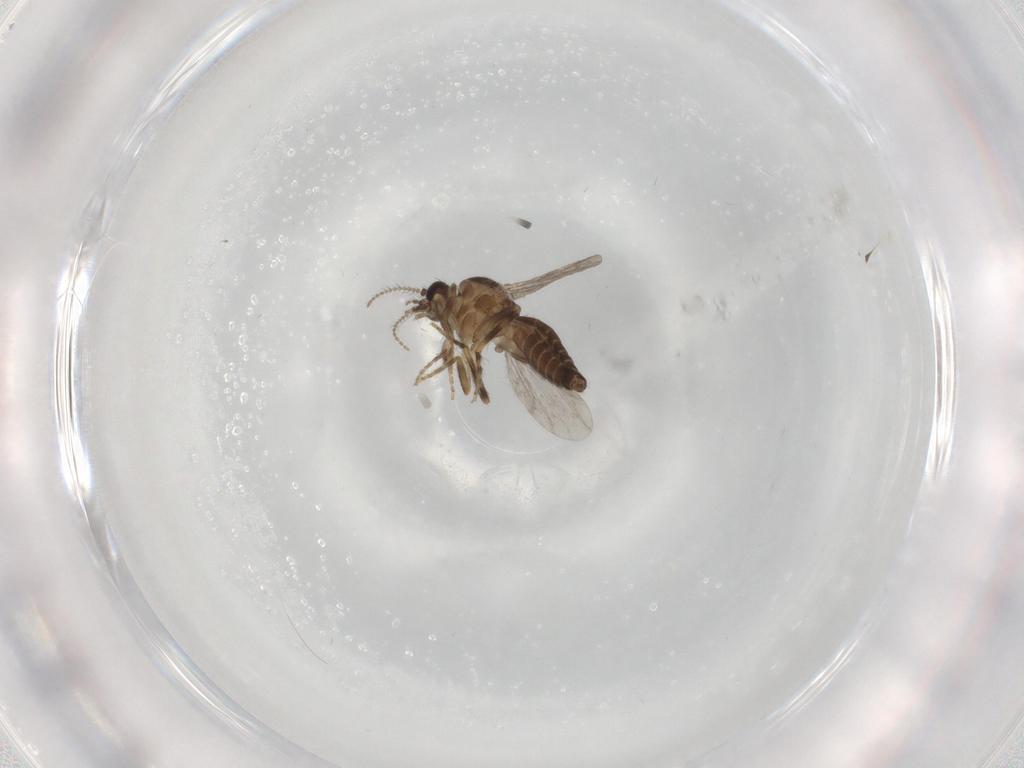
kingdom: Animalia
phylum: Arthropoda
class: Insecta
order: Diptera
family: Ceratopogonidae
